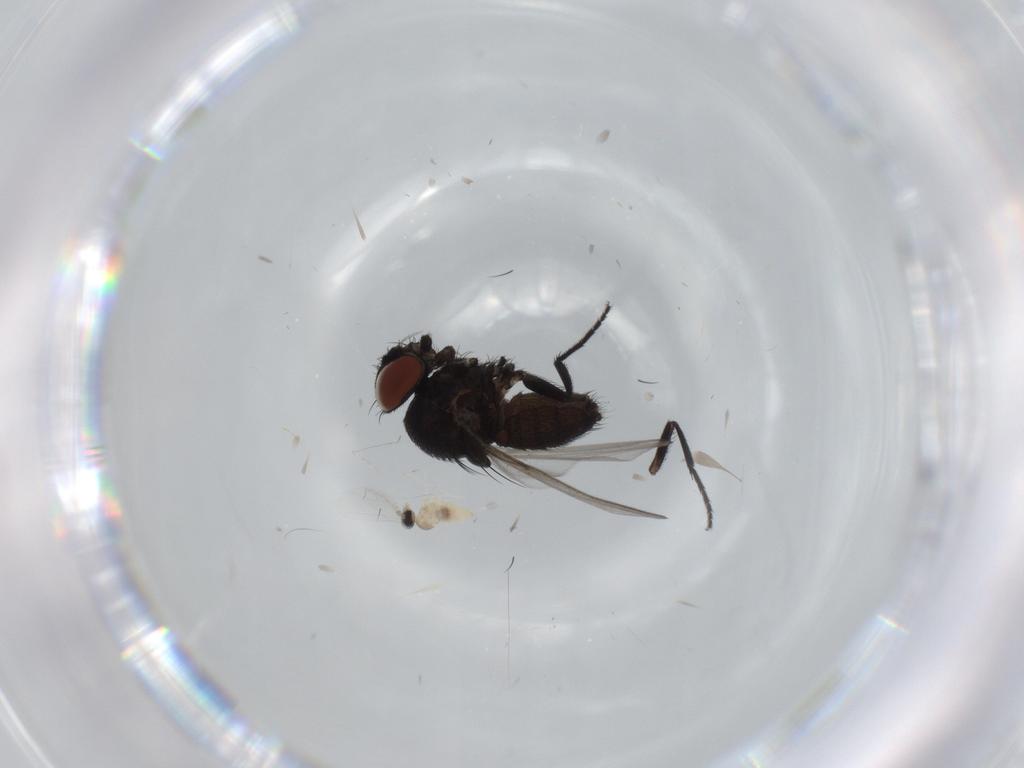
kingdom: Animalia
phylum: Arthropoda
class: Insecta
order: Diptera
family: Milichiidae
